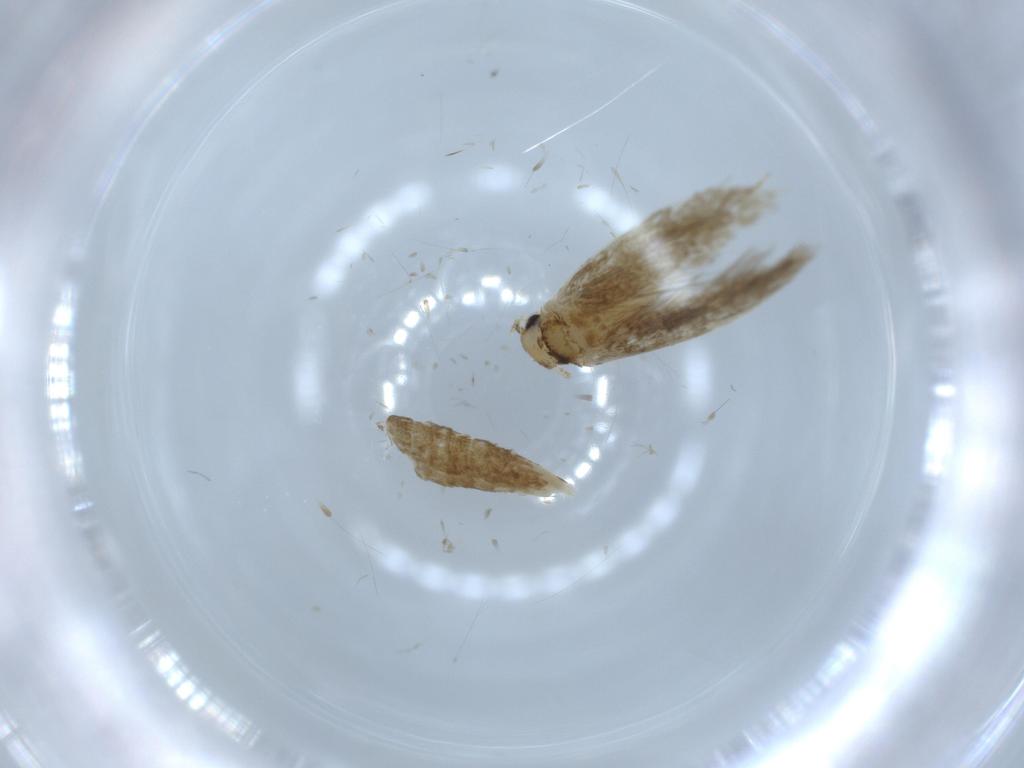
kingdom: Animalia
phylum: Arthropoda
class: Insecta
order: Lepidoptera
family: Tineidae
